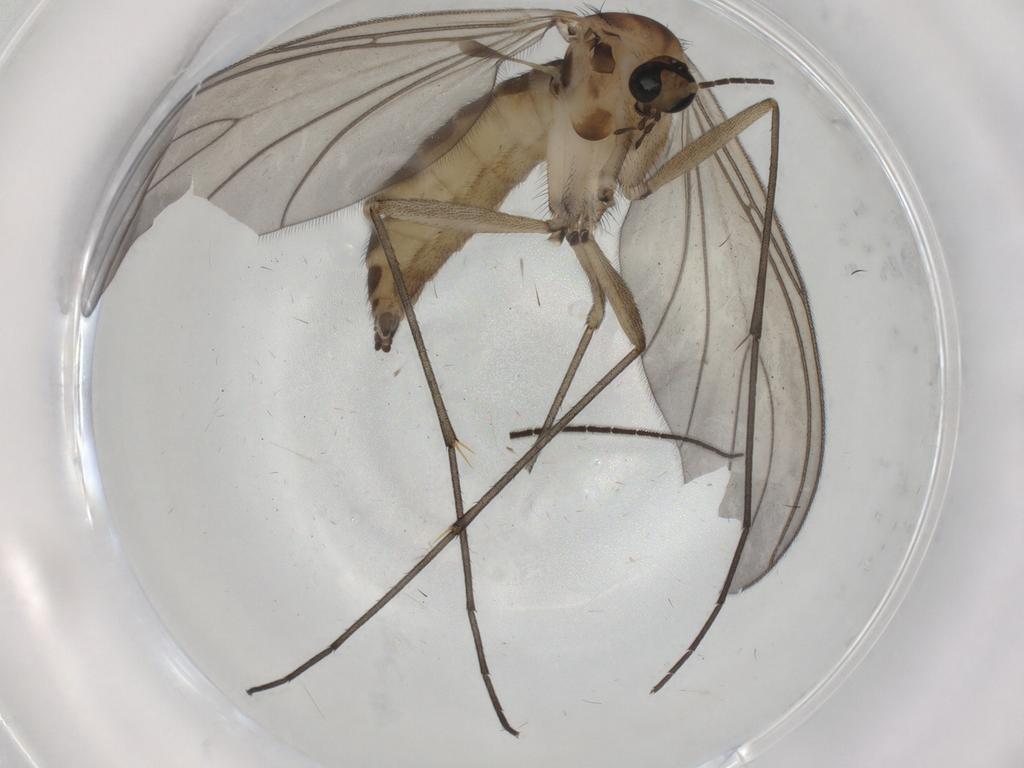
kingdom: Animalia
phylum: Arthropoda
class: Insecta
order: Diptera
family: Sciaridae
